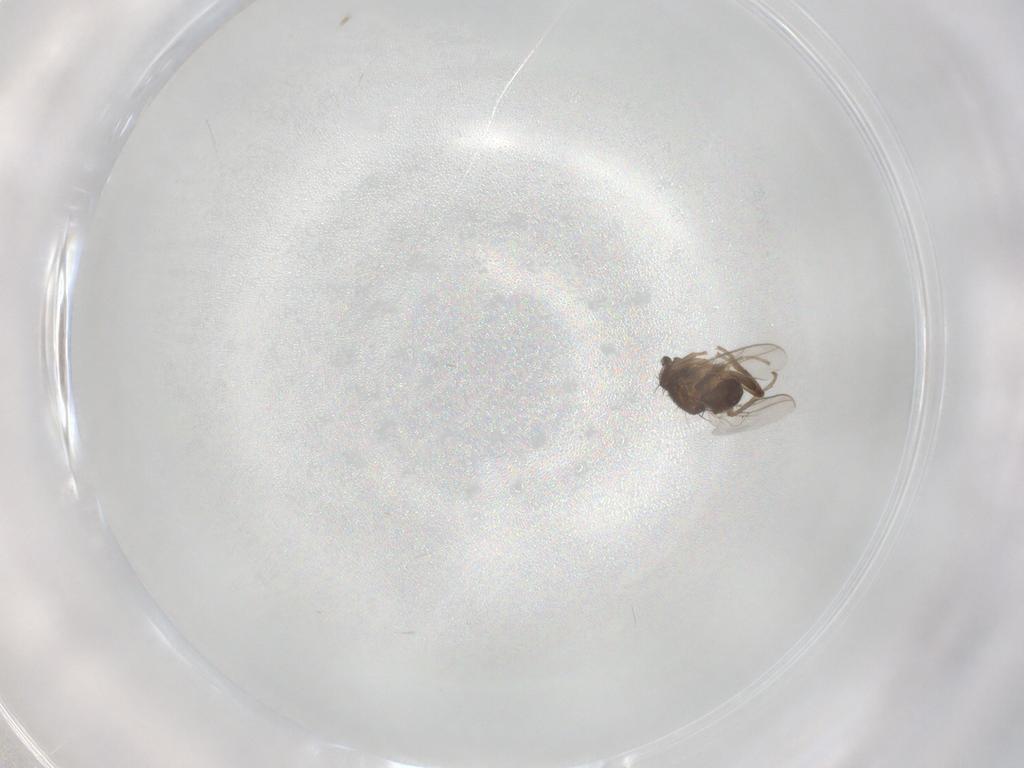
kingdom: Animalia
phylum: Arthropoda
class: Insecta
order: Diptera
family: Sphaeroceridae
